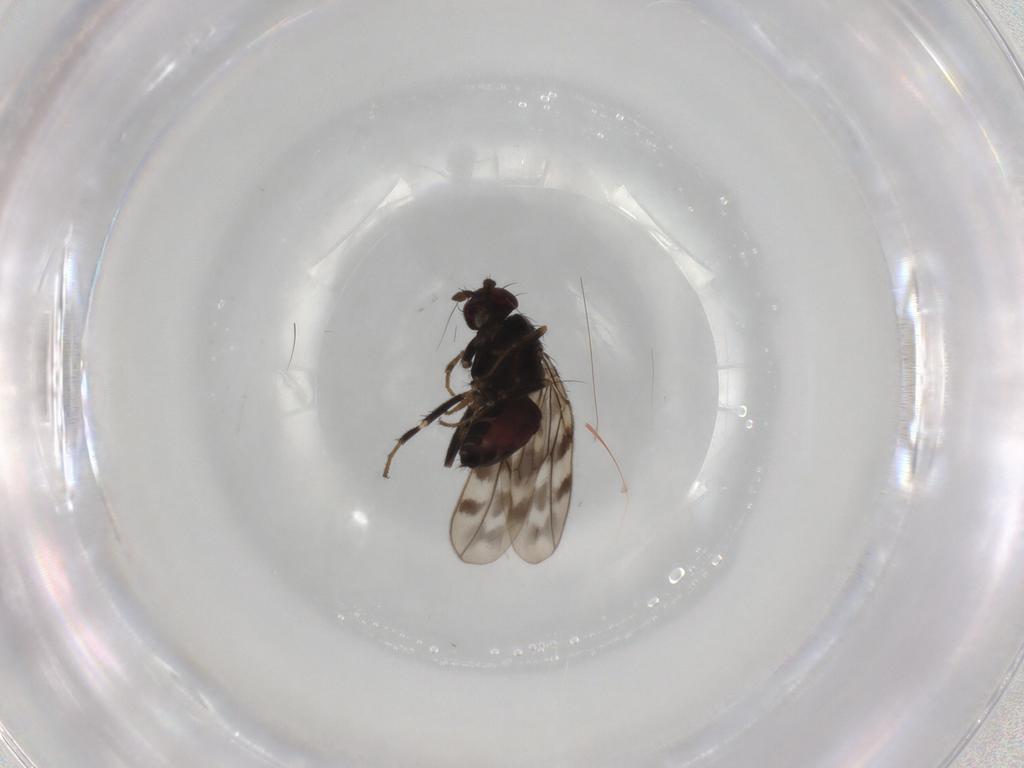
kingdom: Animalia
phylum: Arthropoda
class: Insecta
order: Diptera
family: Sphaeroceridae
